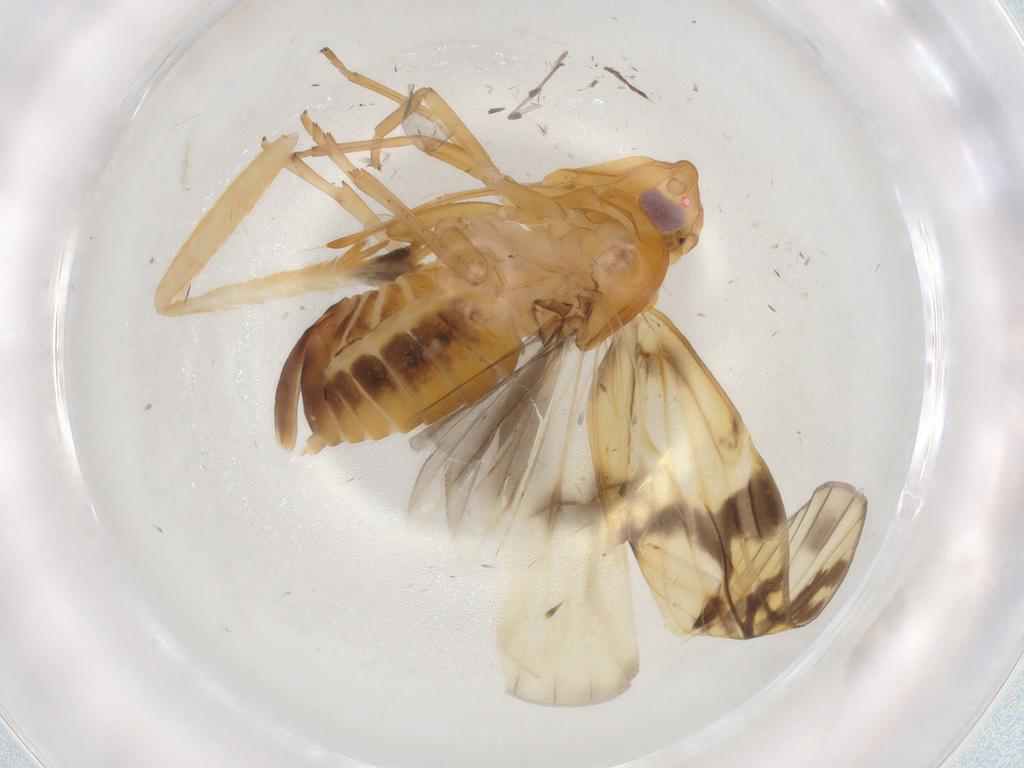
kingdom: Animalia
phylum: Arthropoda
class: Insecta
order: Hemiptera
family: Cixiidae
